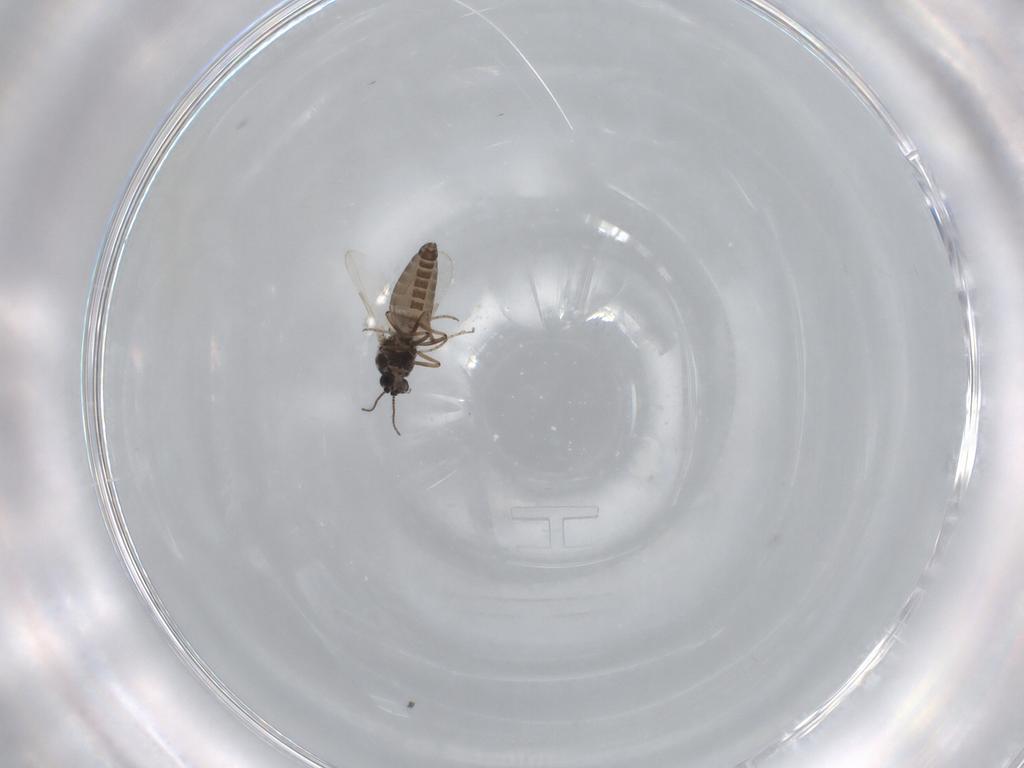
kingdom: Animalia
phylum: Arthropoda
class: Insecta
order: Diptera
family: Ceratopogonidae
